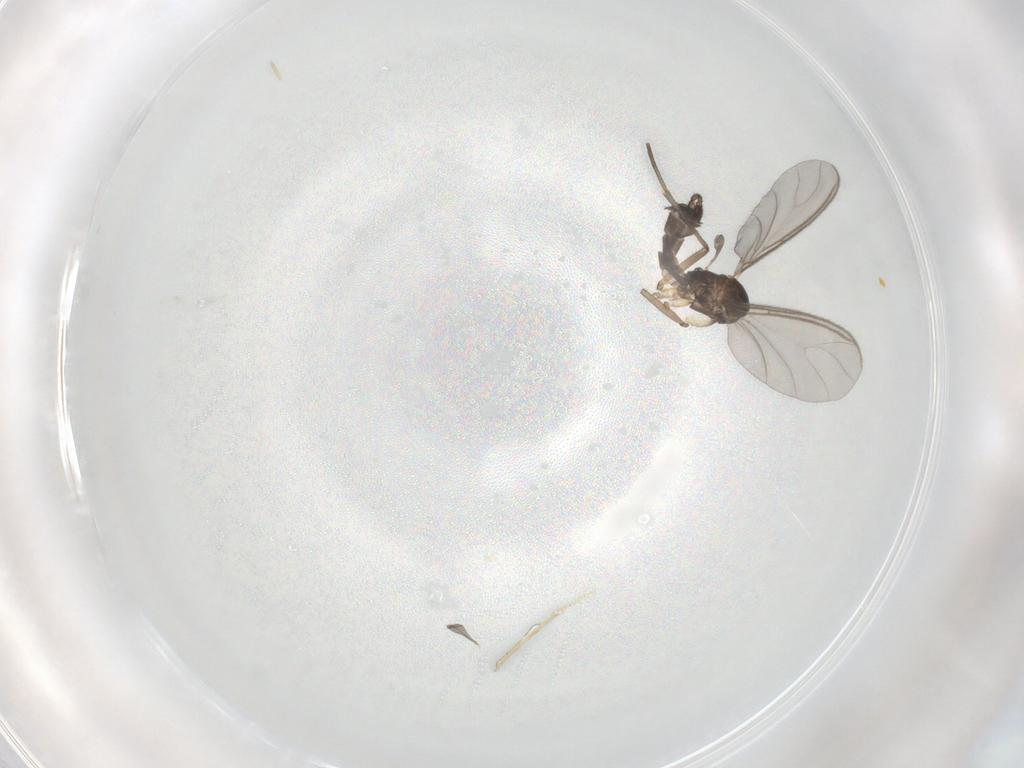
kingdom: Animalia
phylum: Arthropoda
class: Insecta
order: Diptera
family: Sciaridae
